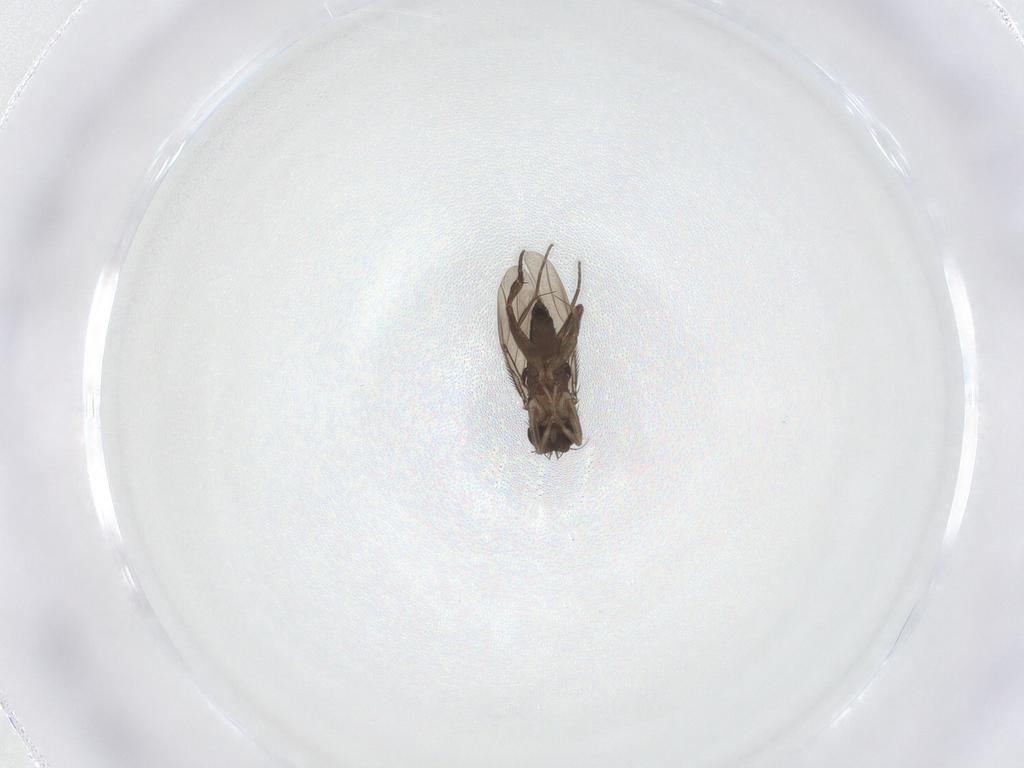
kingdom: Animalia
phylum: Arthropoda
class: Insecta
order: Diptera
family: Phoridae
